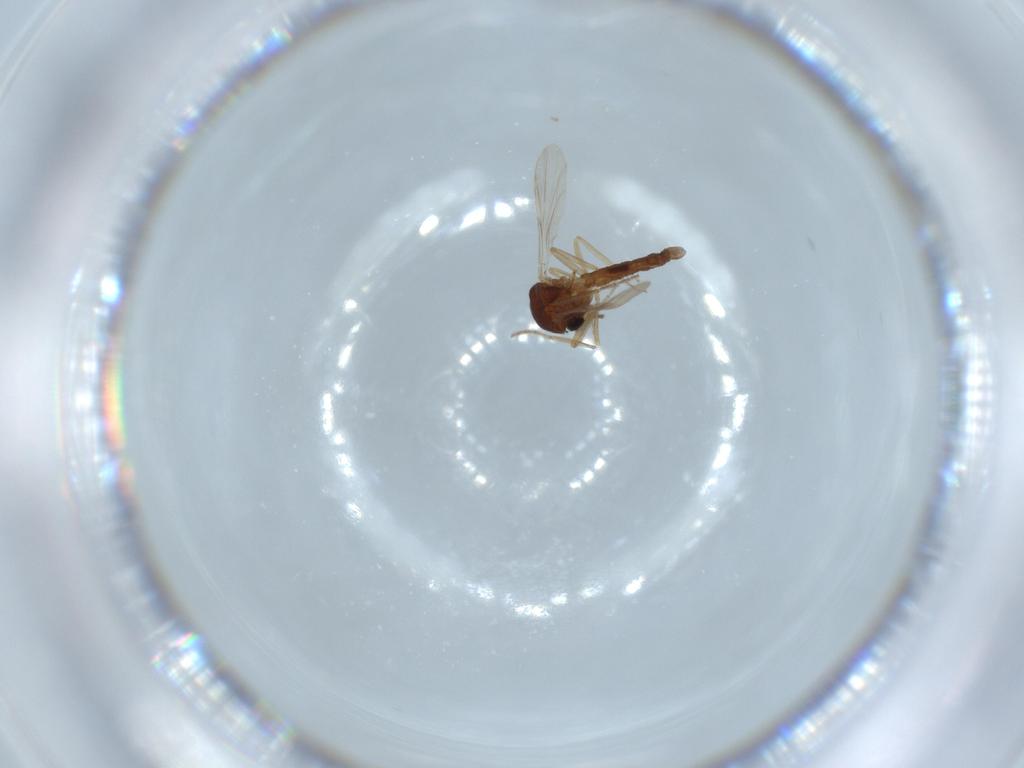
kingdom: Animalia
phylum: Arthropoda
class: Insecta
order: Diptera
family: Ceratopogonidae
